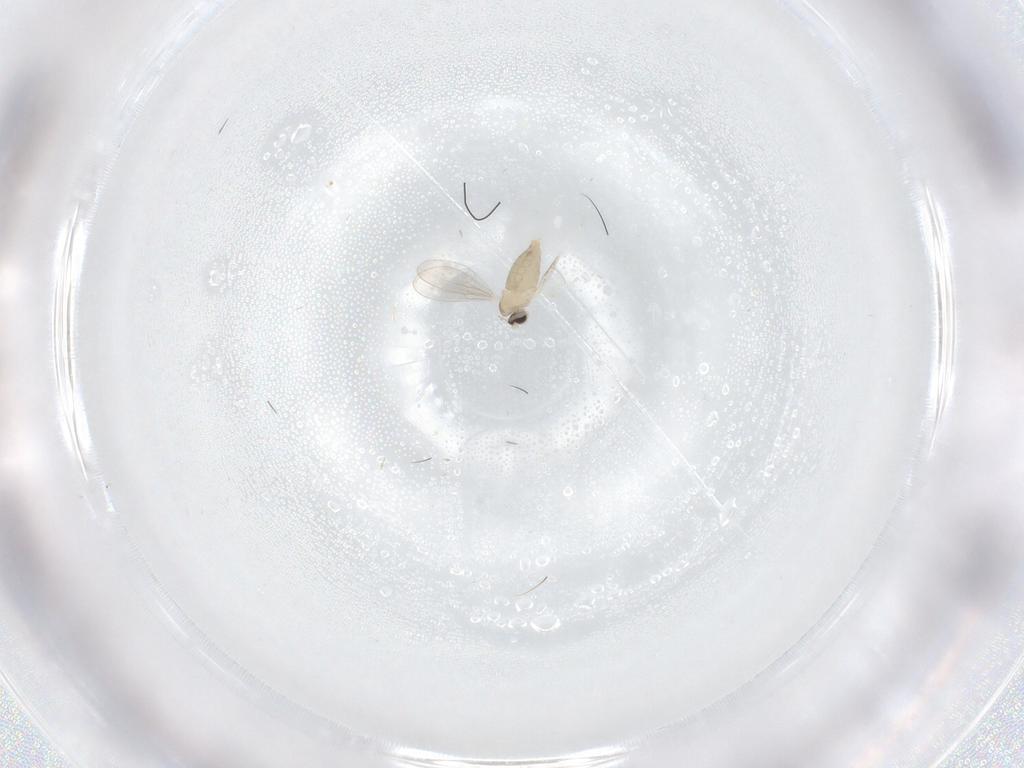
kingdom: Animalia
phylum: Arthropoda
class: Insecta
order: Diptera
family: Cecidomyiidae
